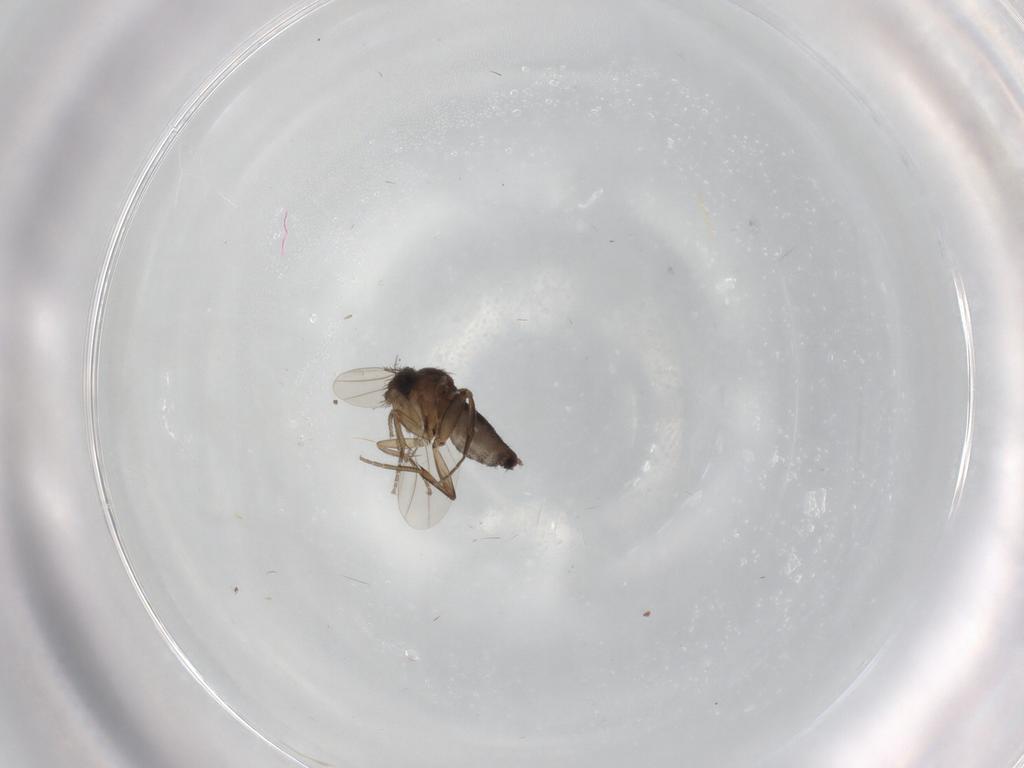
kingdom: Animalia
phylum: Arthropoda
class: Insecta
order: Diptera
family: Phoridae
